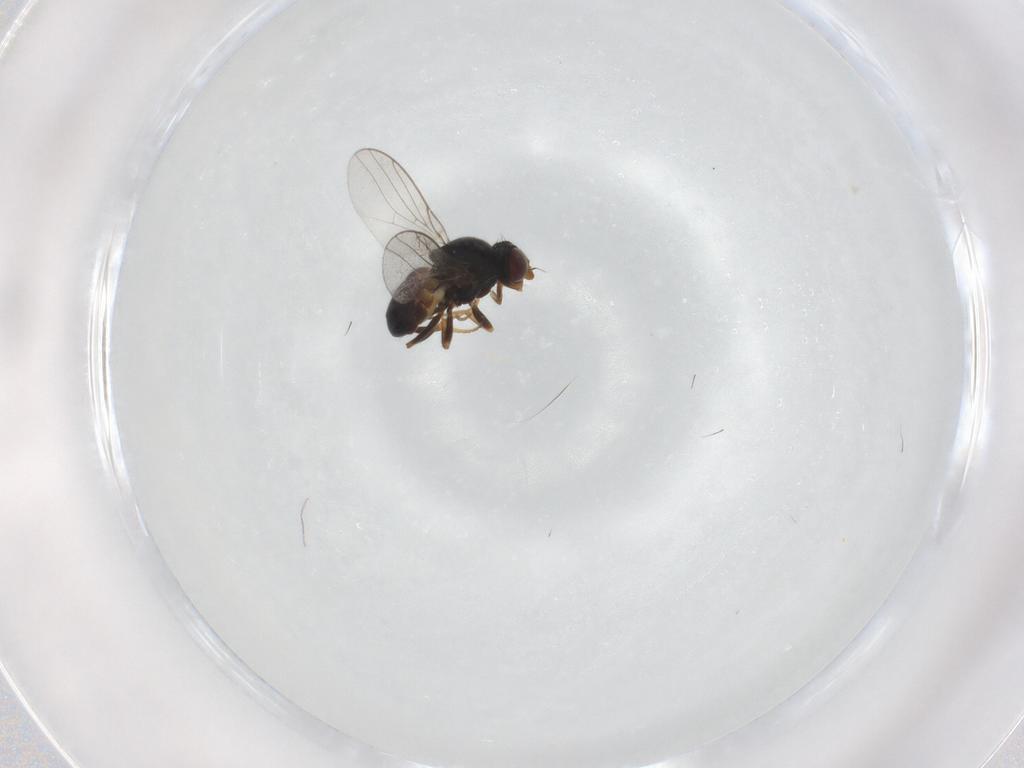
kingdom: Animalia
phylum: Arthropoda
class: Insecta
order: Diptera
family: Chloropidae
